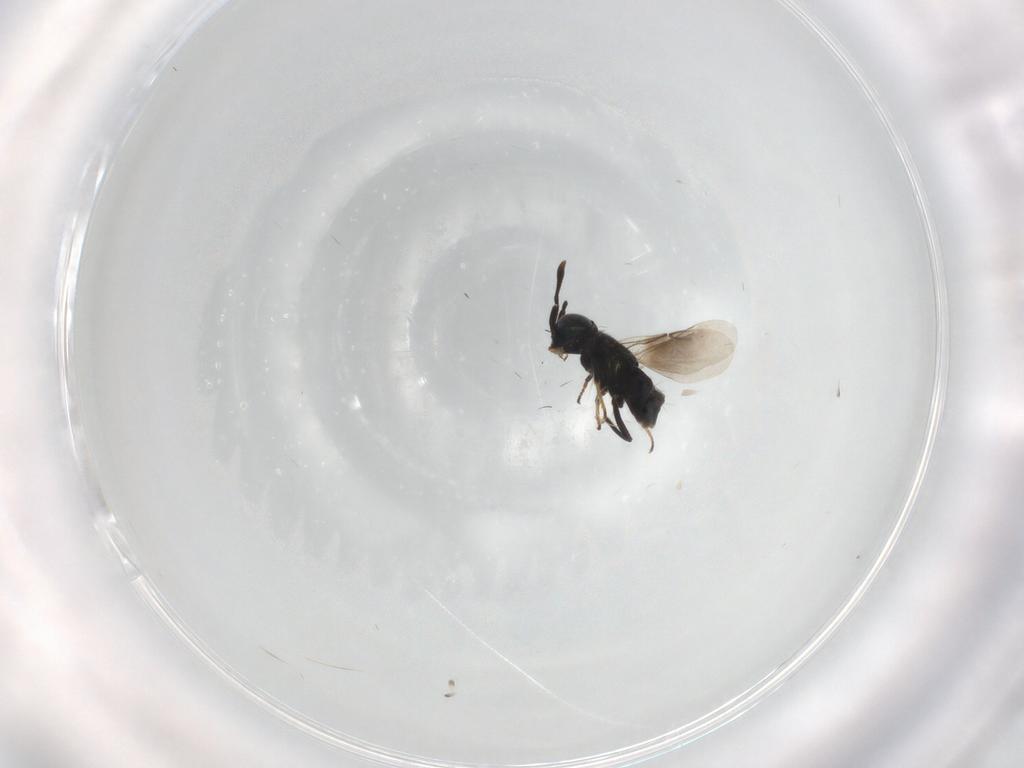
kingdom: Animalia
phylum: Arthropoda
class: Insecta
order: Hymenoptera
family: Encyrtidae
